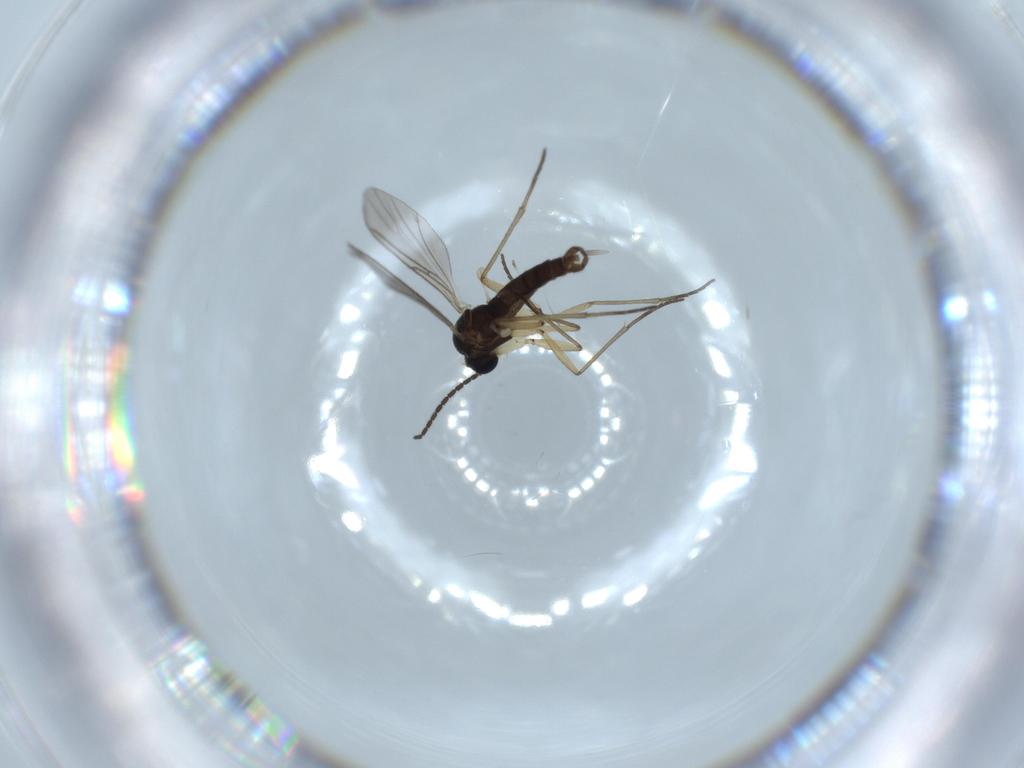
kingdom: Animalia
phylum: Arthropoda
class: Insecta
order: Diptera
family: Sciaridae
